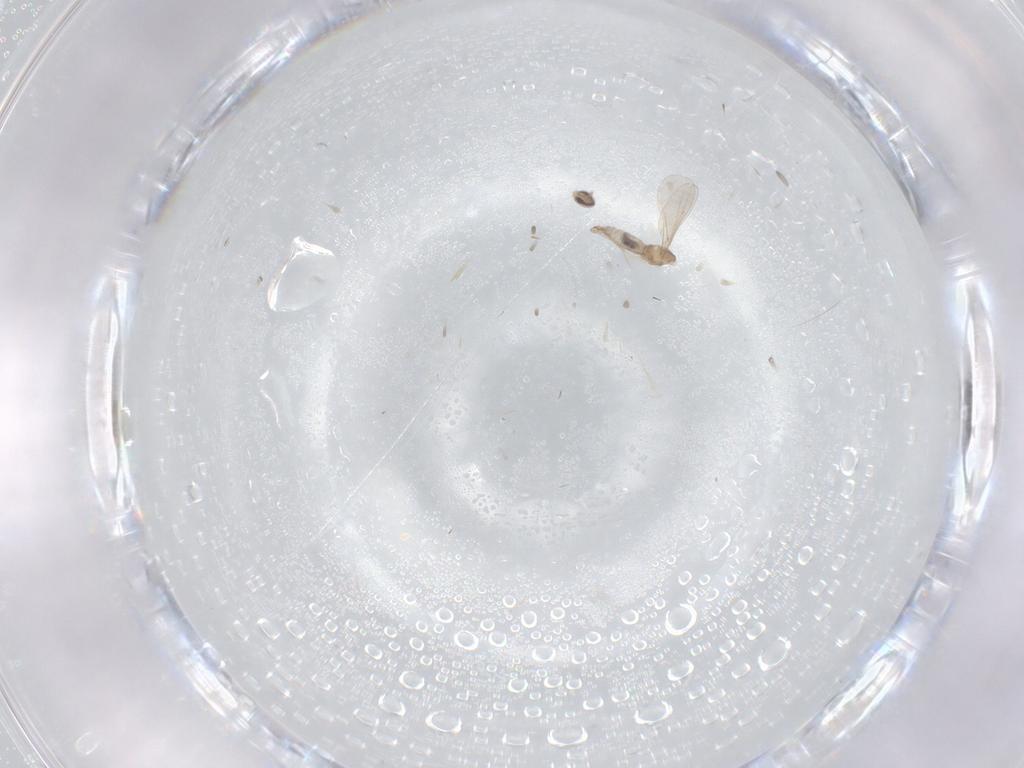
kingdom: Animalia
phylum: Arthropoda
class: Insecta
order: Diptera
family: Cecidomyiidae
